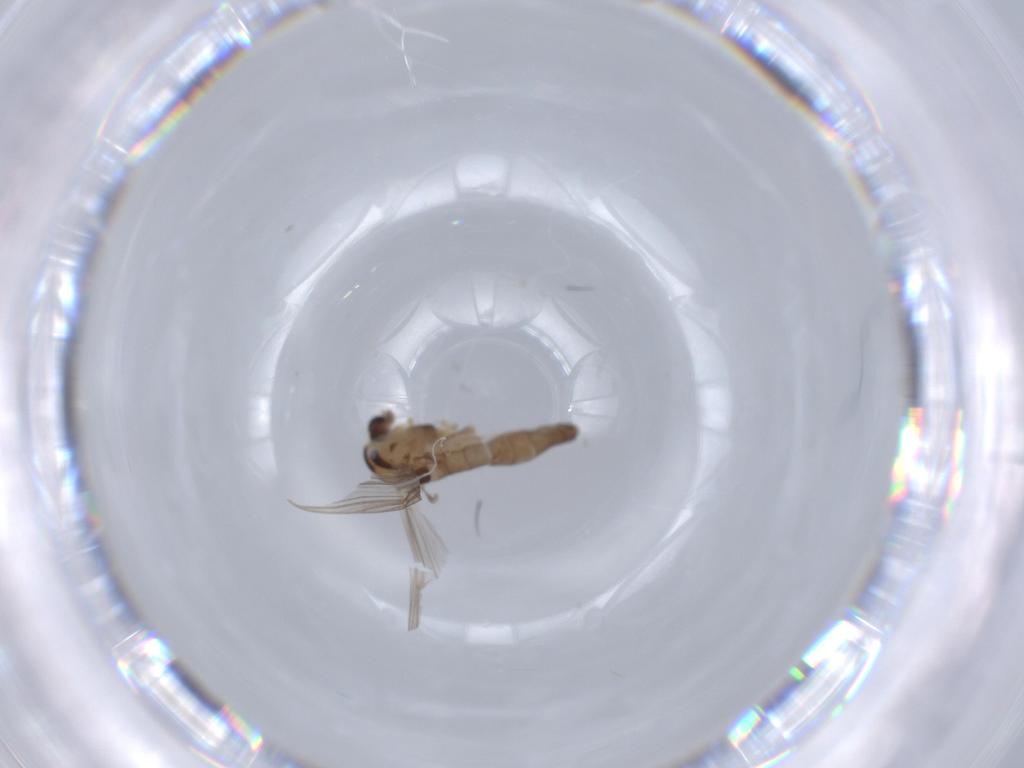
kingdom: Animalia
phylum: Arthropoda
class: Insecta
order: Diptera
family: Chironomidae
